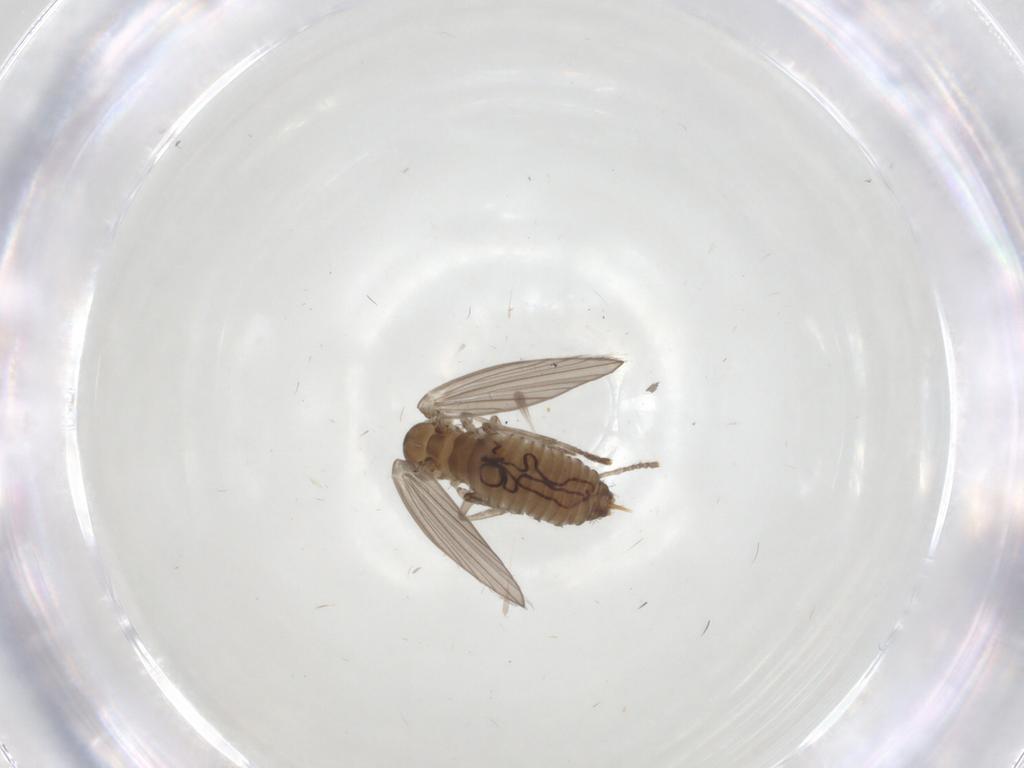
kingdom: Animalia
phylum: Arthropoda
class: Insecta
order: Diptera
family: Psychodidae
